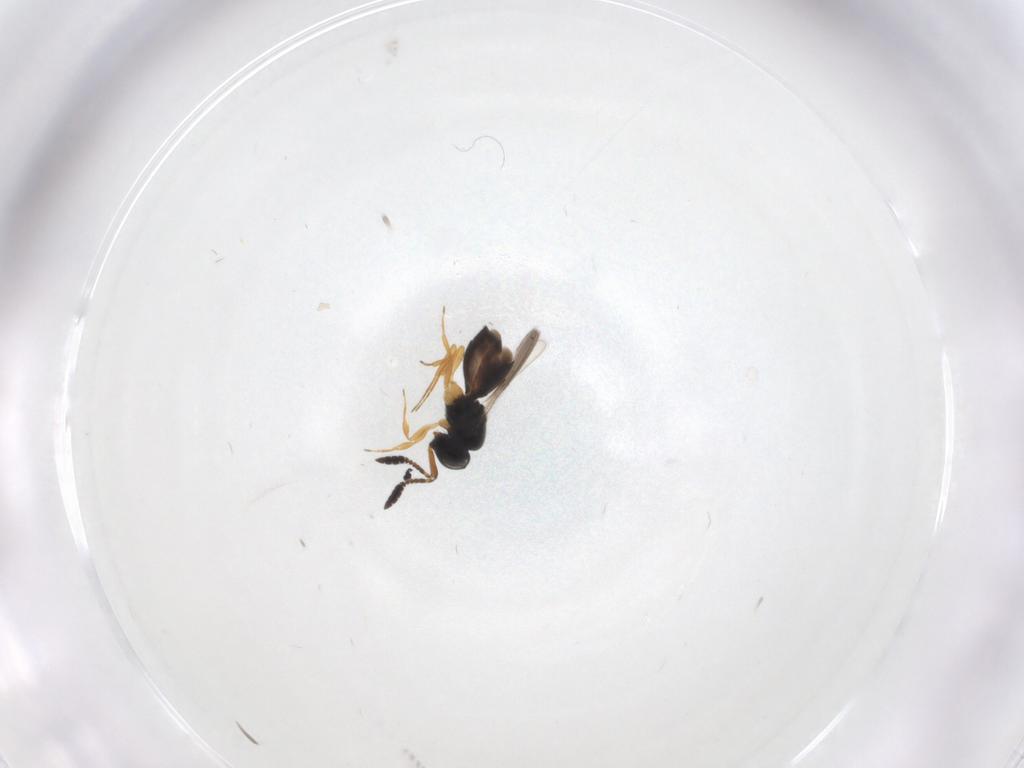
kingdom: Animalia
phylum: Arthropoda
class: Insecta
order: Hymenoptera
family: Scelionidae
